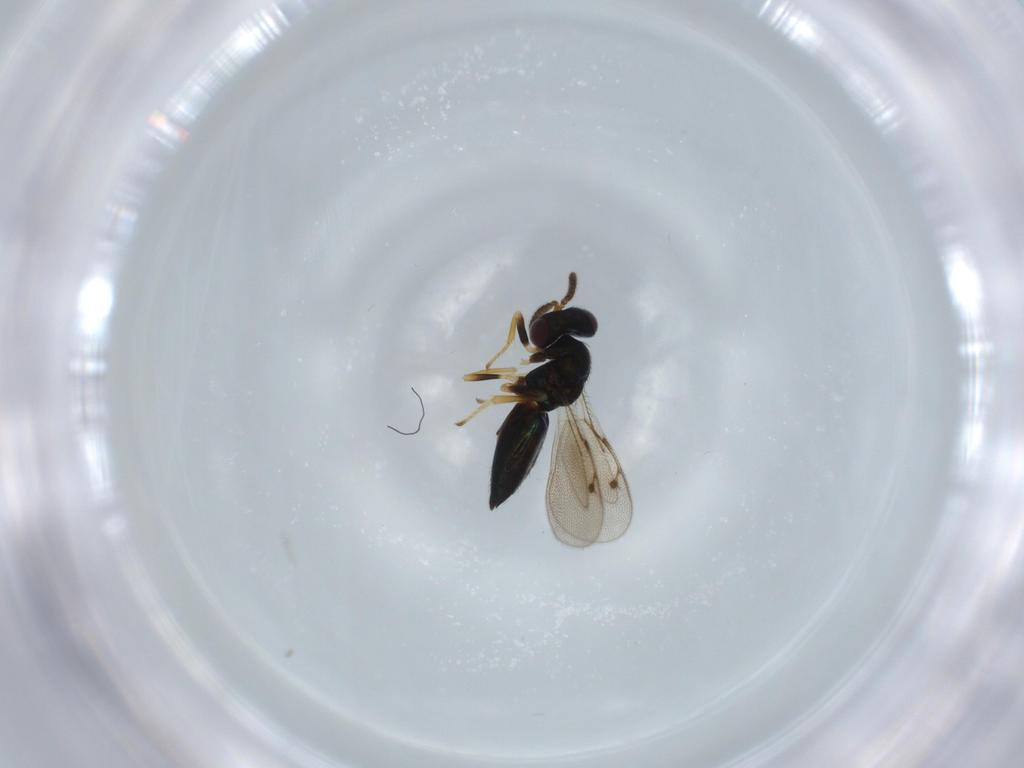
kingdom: Animalia
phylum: Arthropoda
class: Insecta
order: Hymenoptera
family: Pirenidae
